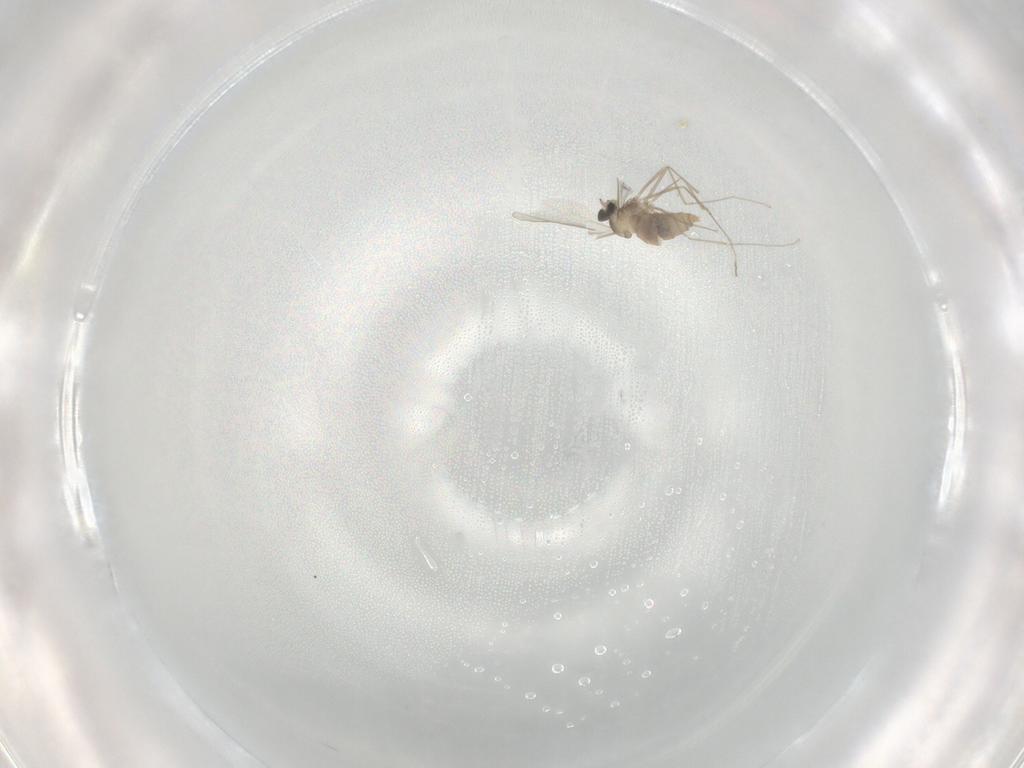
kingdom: Animalia
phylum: Arthropoda
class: Insecta
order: Diptera
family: Cecidomyiidae
